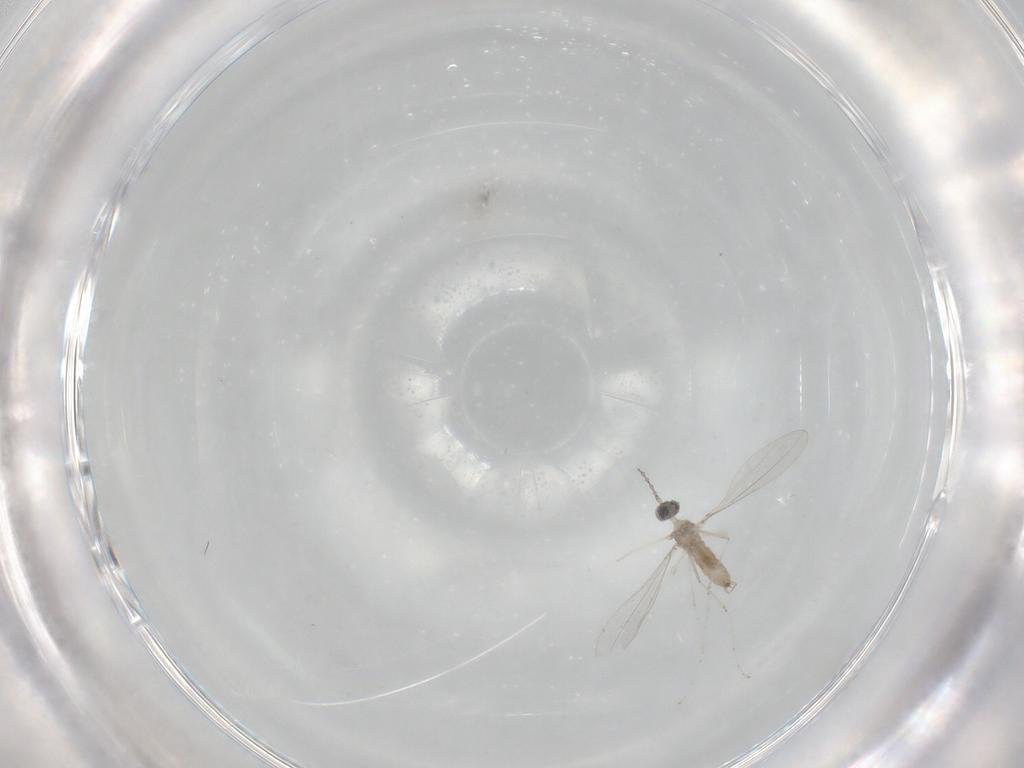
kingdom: Animalia
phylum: Arthropoda
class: Insecta
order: Diptera
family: Cecidomyiidae
